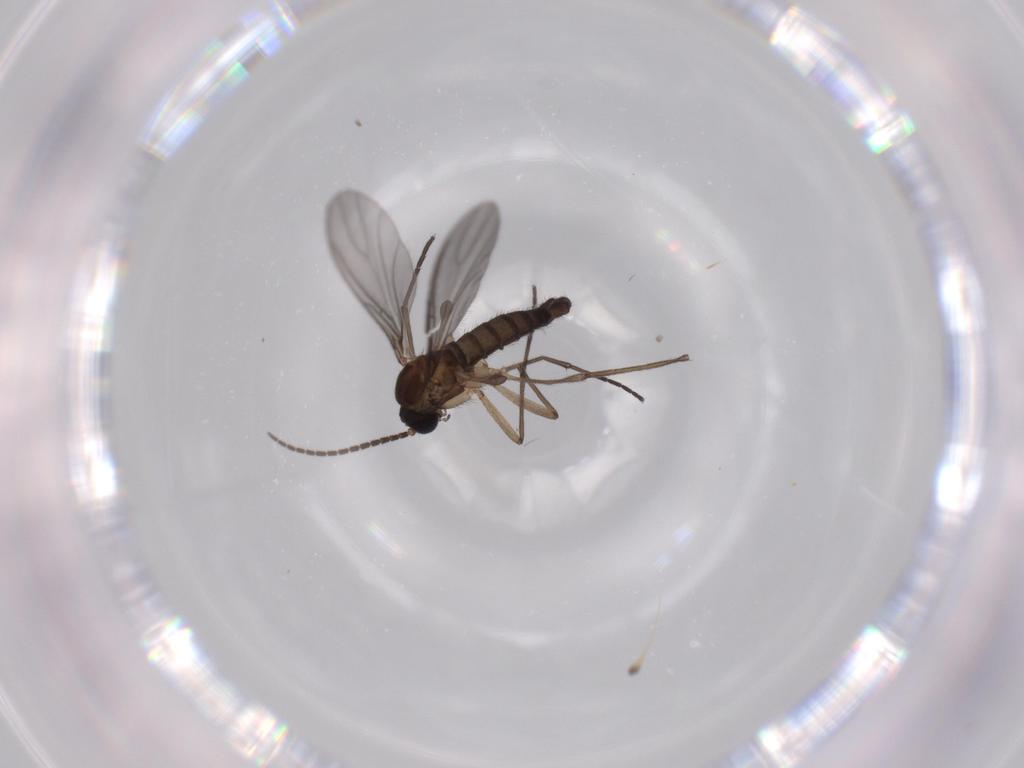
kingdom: Animalia
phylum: Arthropoda
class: Insecta
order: Diptera
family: Sciaridae
